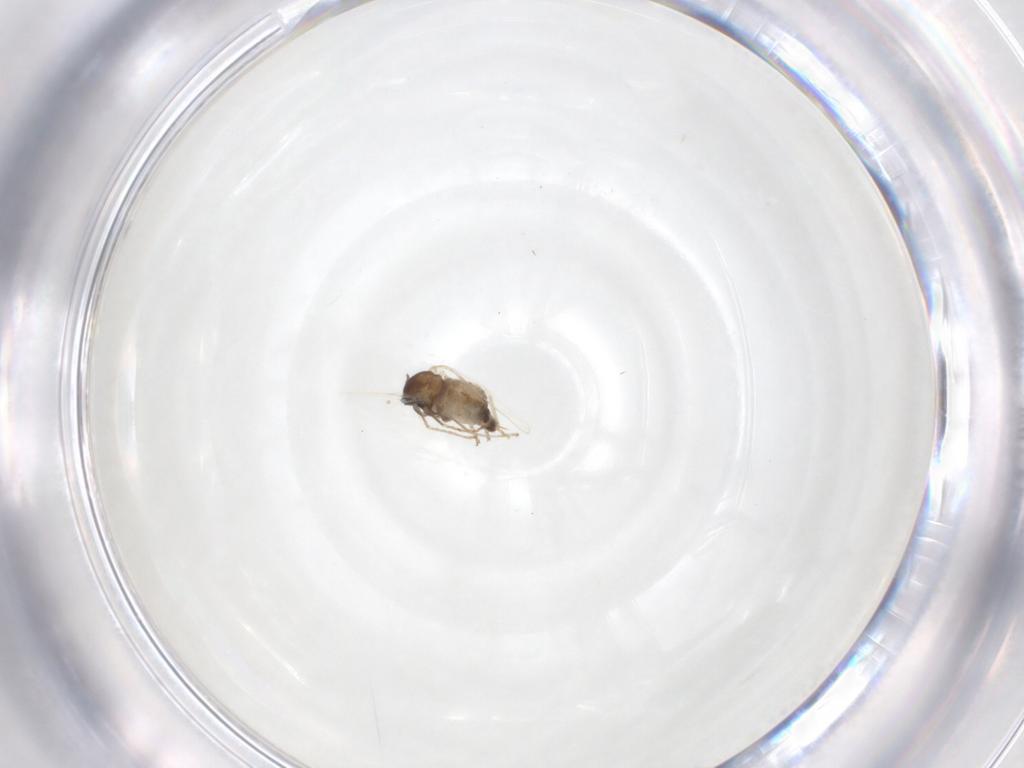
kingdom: Animalia
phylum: Arthropoda
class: Insecta
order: Diptera
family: Cecidomyiidae
